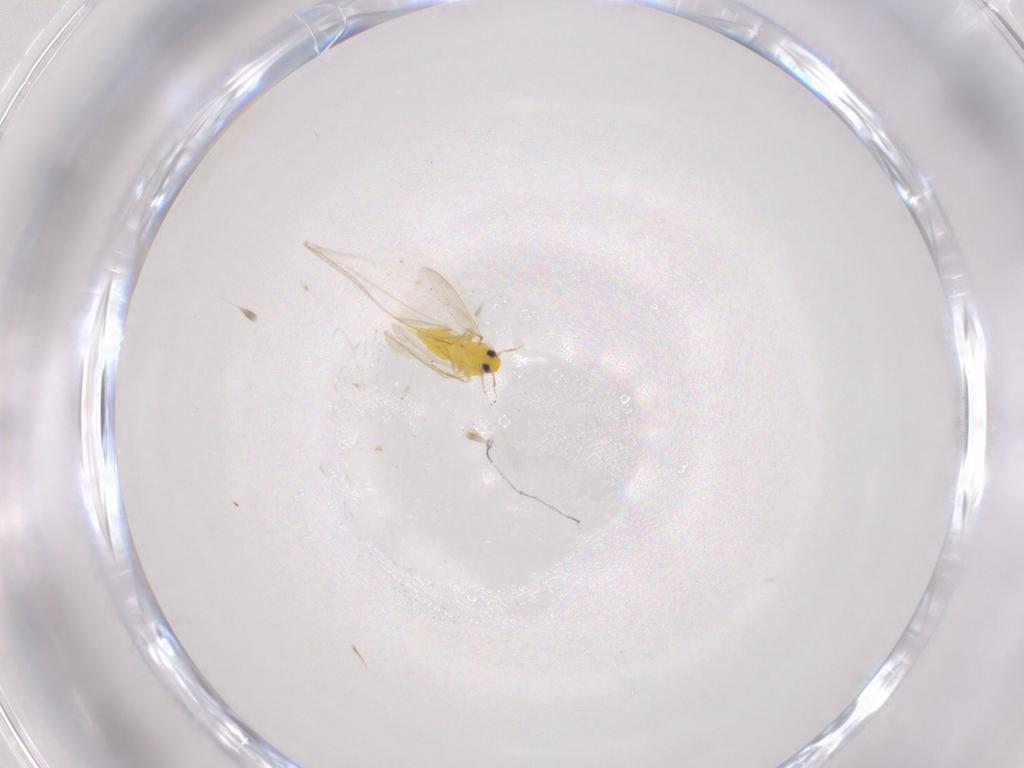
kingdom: Animalia
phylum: Arthropoda
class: Insecta
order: Hemiptera
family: Aleyrodidae
